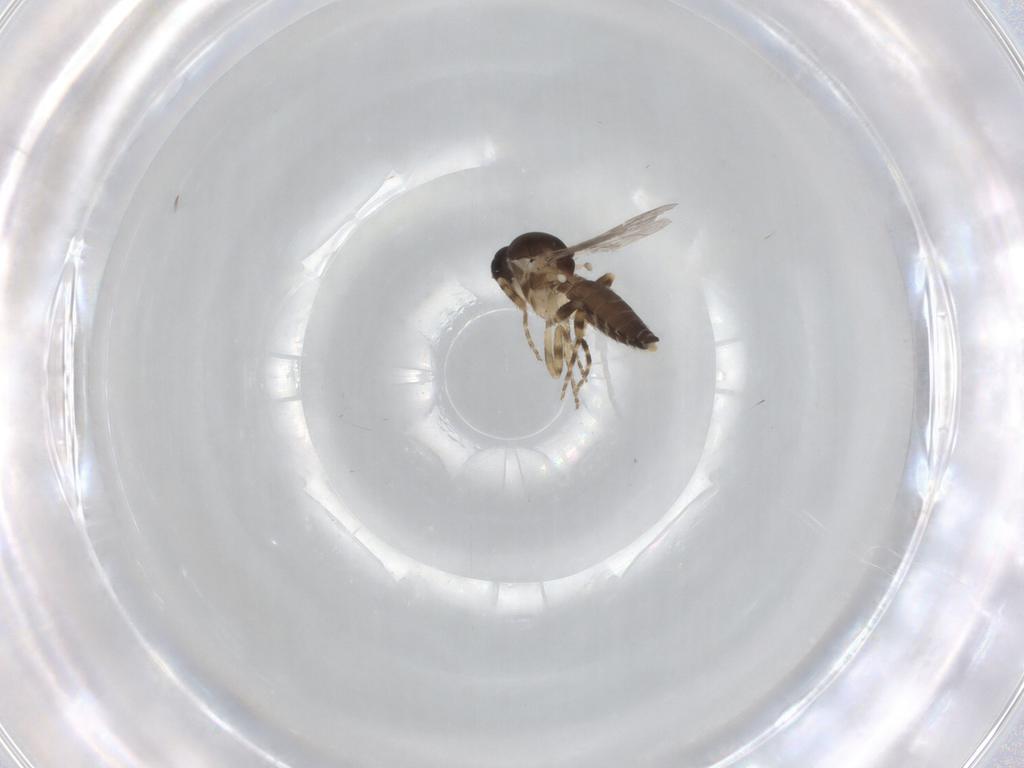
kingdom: Animalia
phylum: Arthropoda
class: Insecta
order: Diptera
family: Ceratopogonidae
